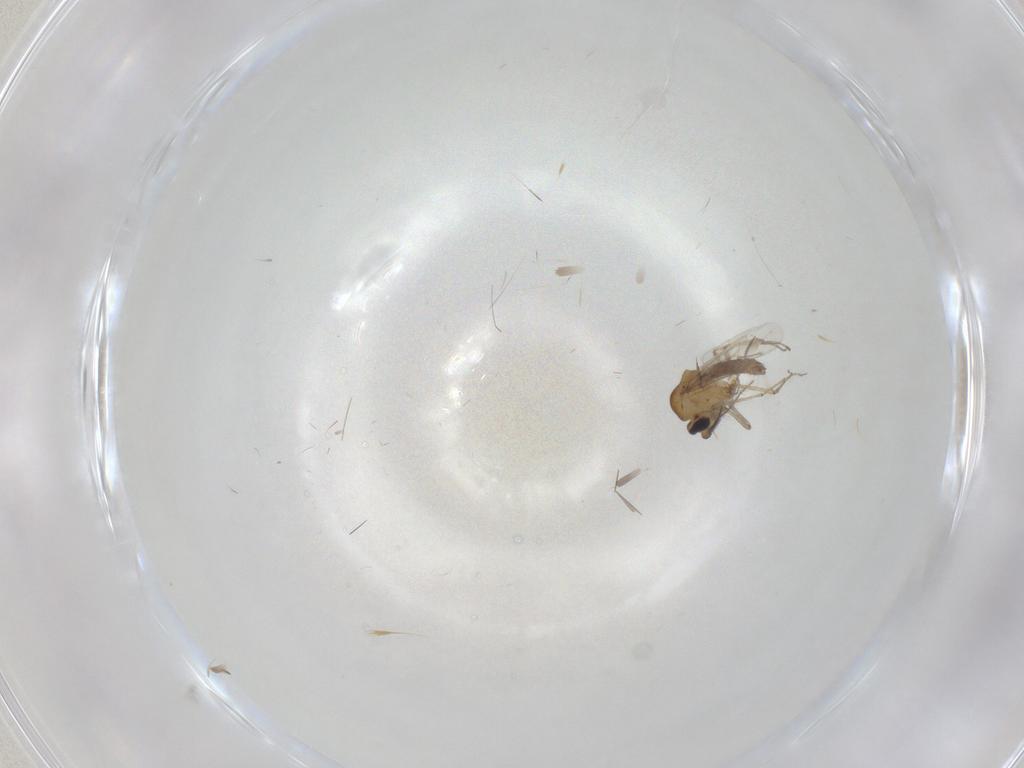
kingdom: Animalia
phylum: Arthropoda
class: Insecta
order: Diptera
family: Ceratopogonidae
